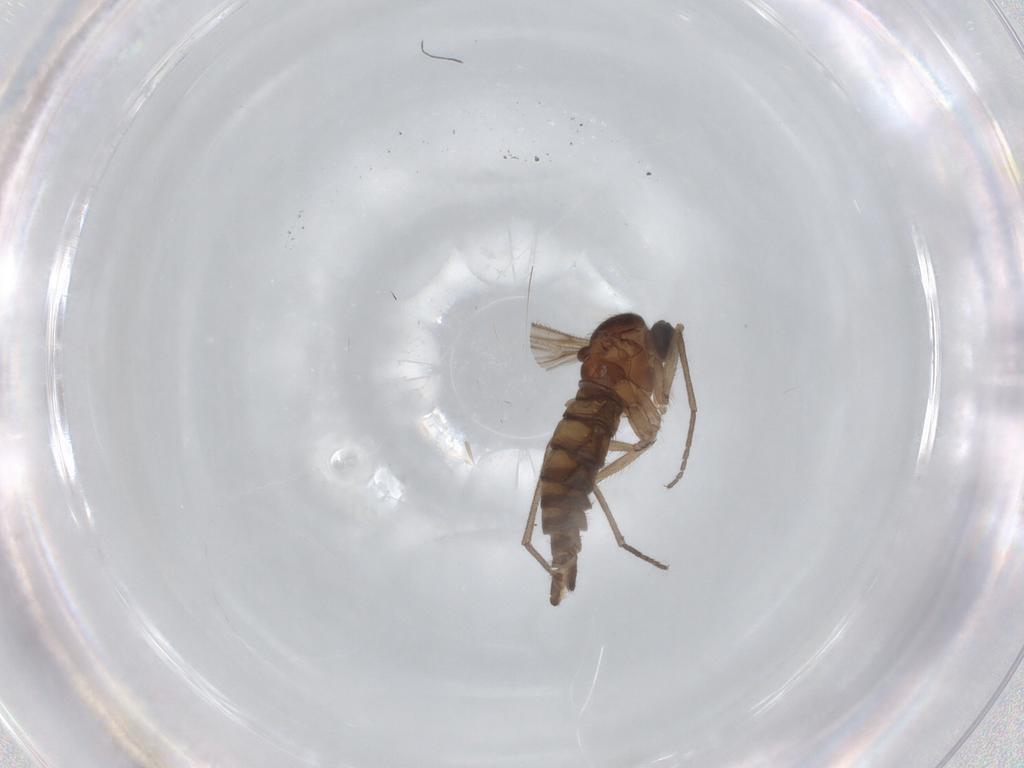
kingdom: Animalia
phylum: Arthropoda
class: Insecta
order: Diptera
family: Sciaridae
